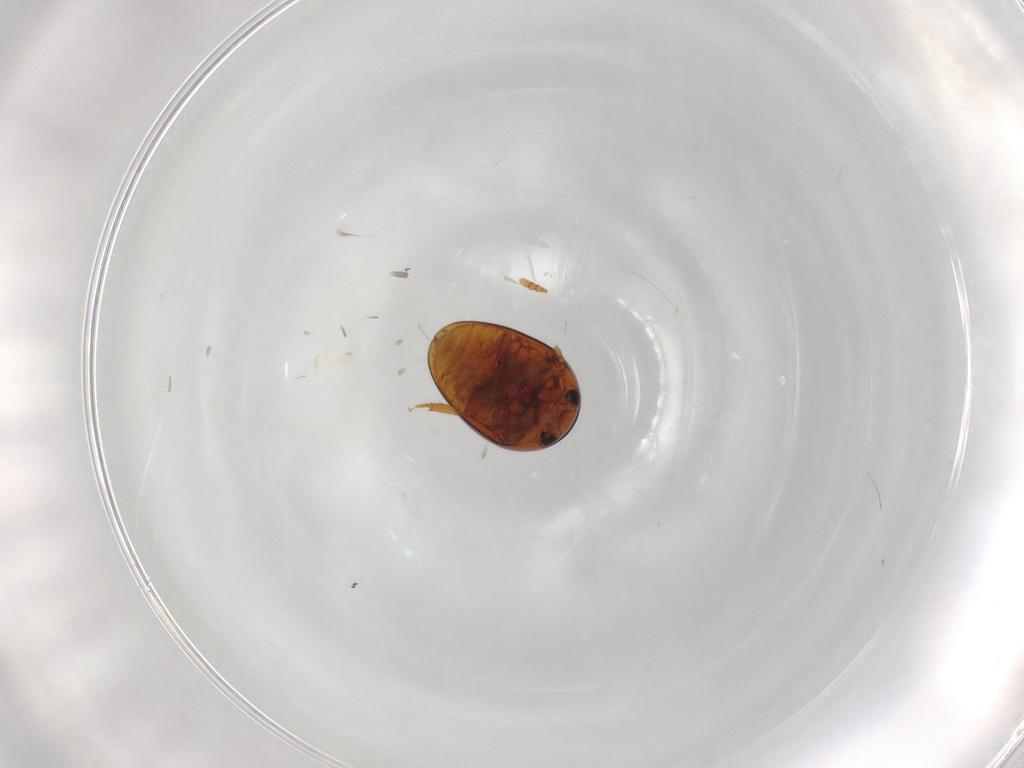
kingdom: Animalia
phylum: Arthropoda
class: Insecta
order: Coleoptera
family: Phalacridae
